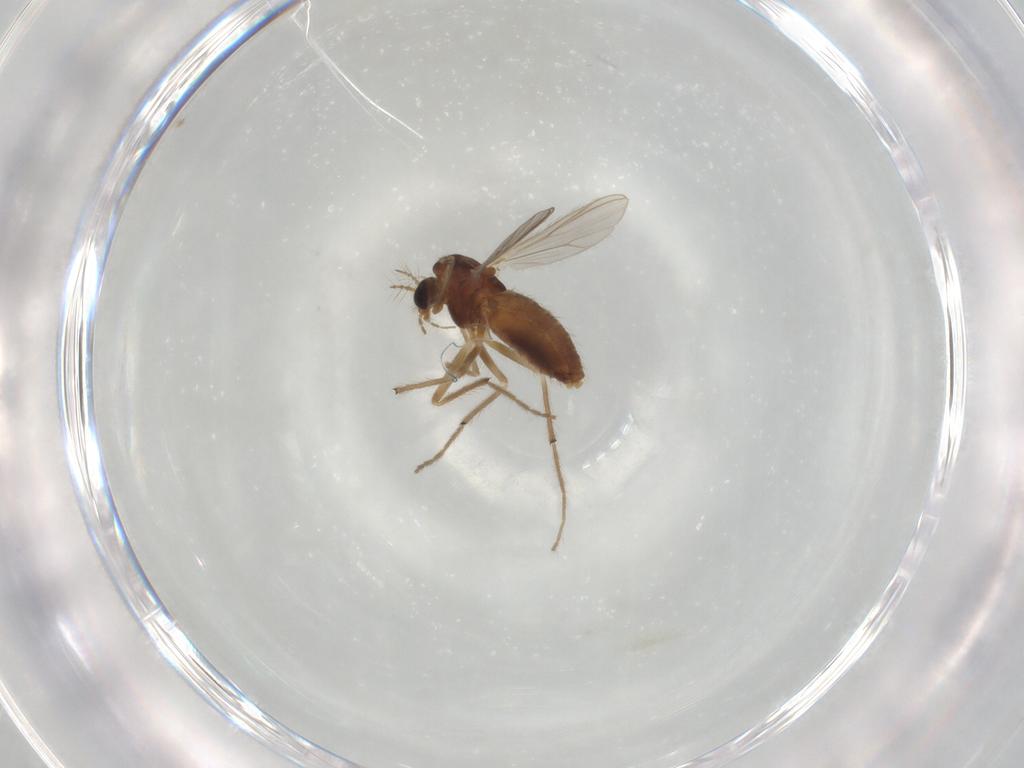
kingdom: Animalia
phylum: Arthropoda
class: Insecta
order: Diptera
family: Chironomidae
